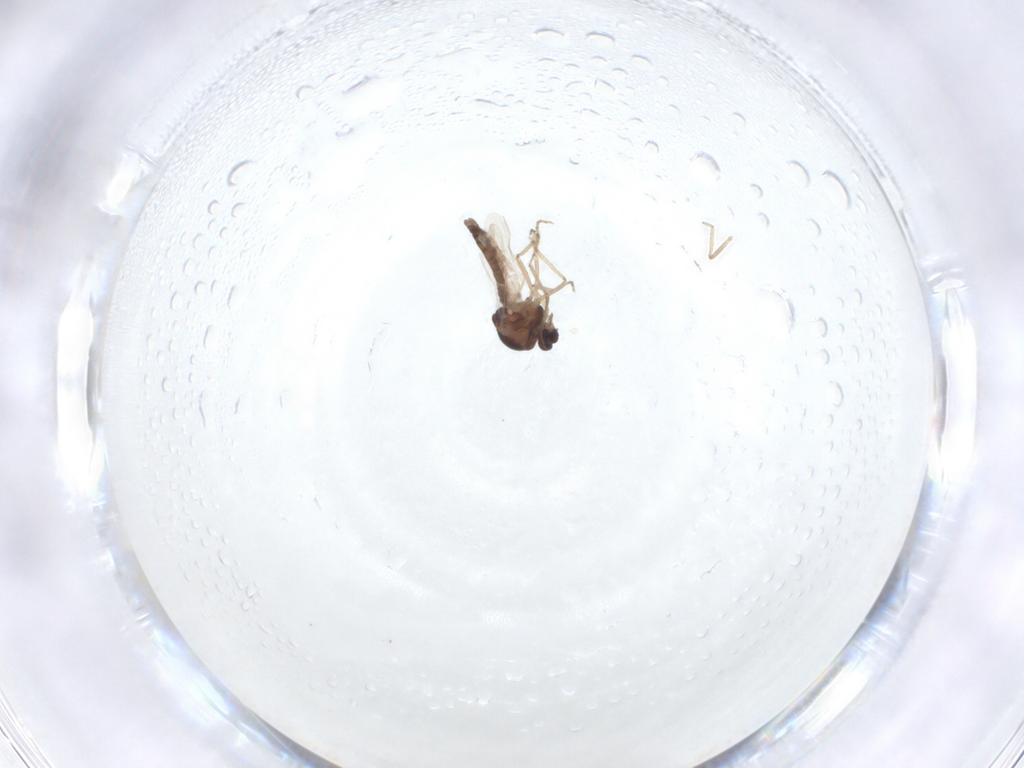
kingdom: Animalia
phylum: Arthropoda
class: Insecta
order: Diptera
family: Ceratopogonidae
